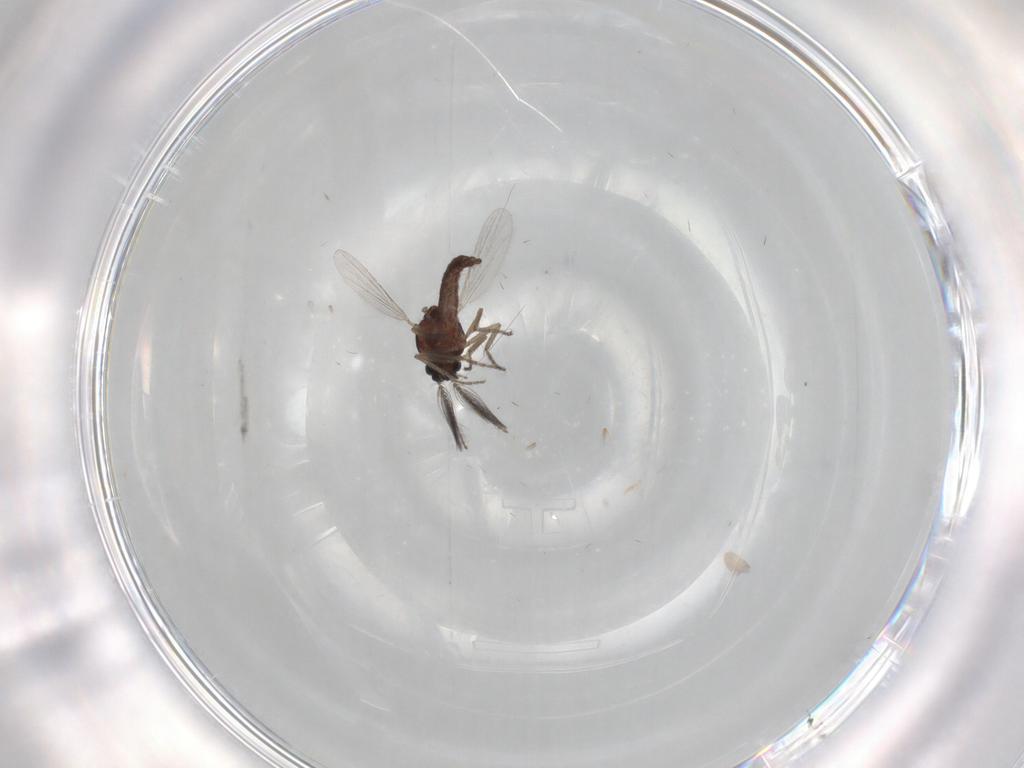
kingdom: Animalia
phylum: Arthropoda
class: Insecta
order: Diptera
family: Ceratopogonidae
